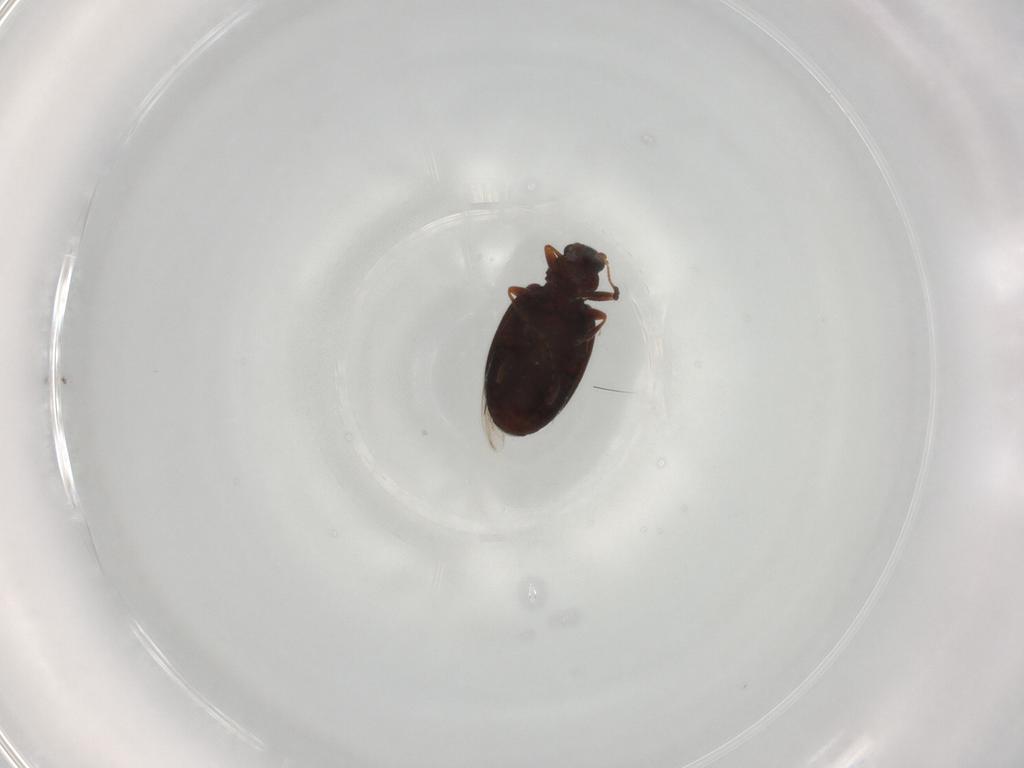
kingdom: Animalia
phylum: Arthropoda
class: Insecta
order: Coleoptera
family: Latridiidae
